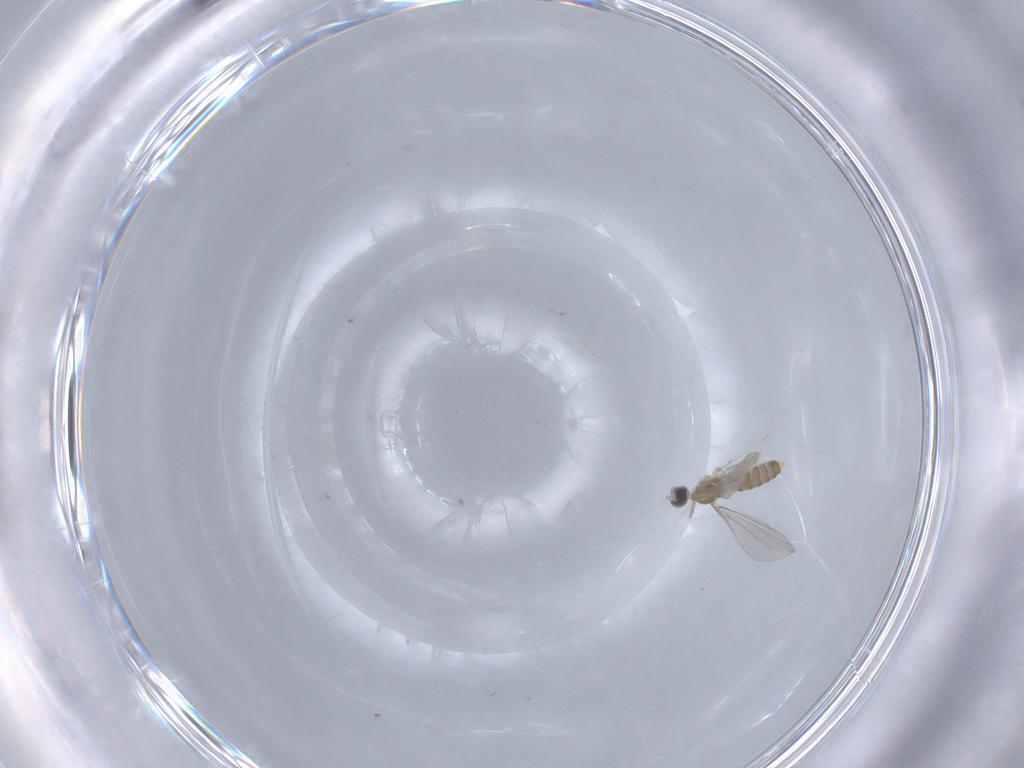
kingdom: Animalia
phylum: Arthropoda
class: Insecta
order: Diptera
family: Cecidomyiidae
